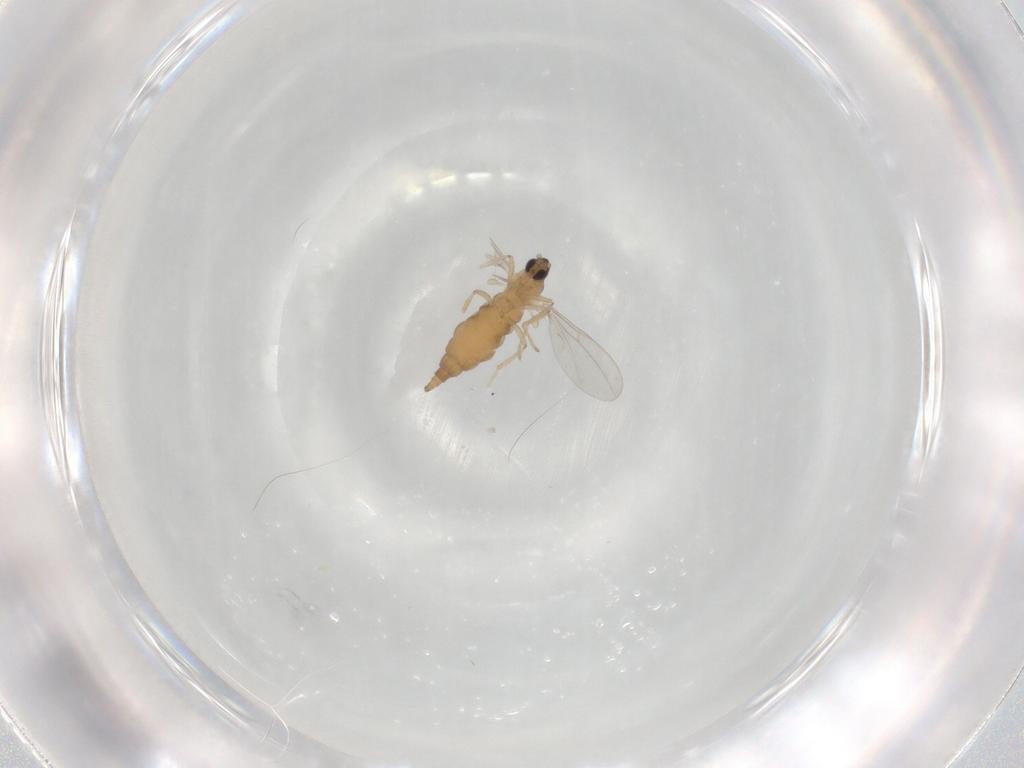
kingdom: Animalia
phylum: Arthropoda
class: Insecta
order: Diptera
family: Cecidomyiidae
